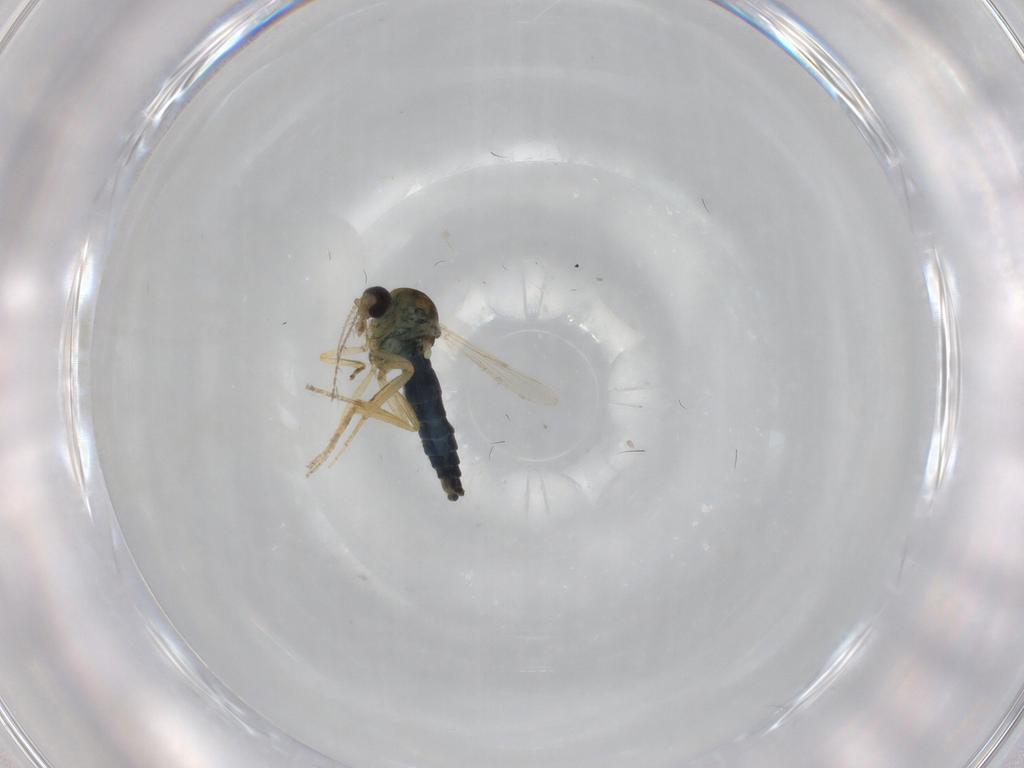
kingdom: Animalia
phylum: Arthropoda
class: Insecta
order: Diptera
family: Ceratopogonidae
